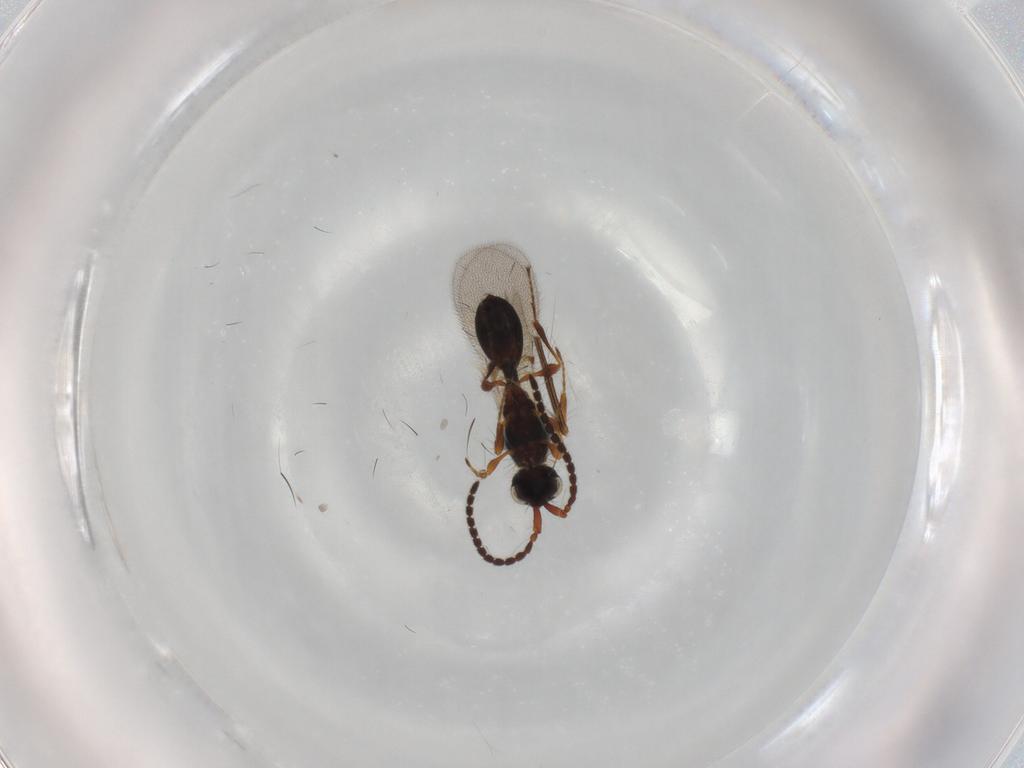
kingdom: Animalia
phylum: Arthropoda
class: Insecta
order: Hymenoptera
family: Diapriidae
